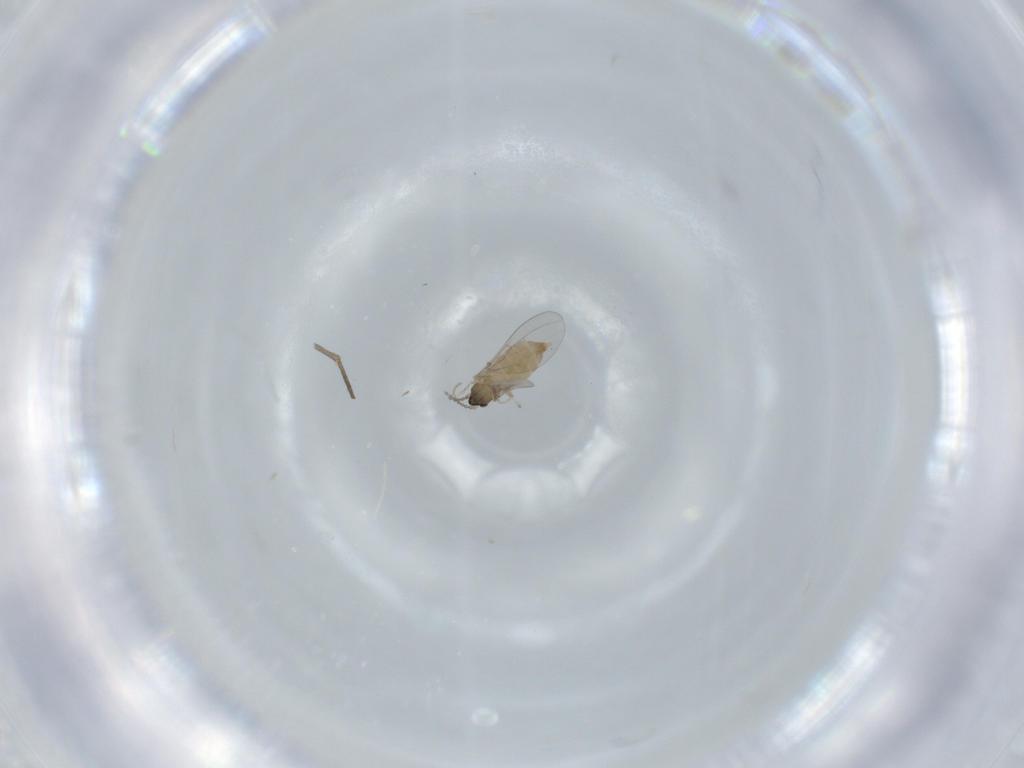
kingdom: Animalia
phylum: Arthropoda
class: Insecta
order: Diptera
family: Cecidomyiidae
